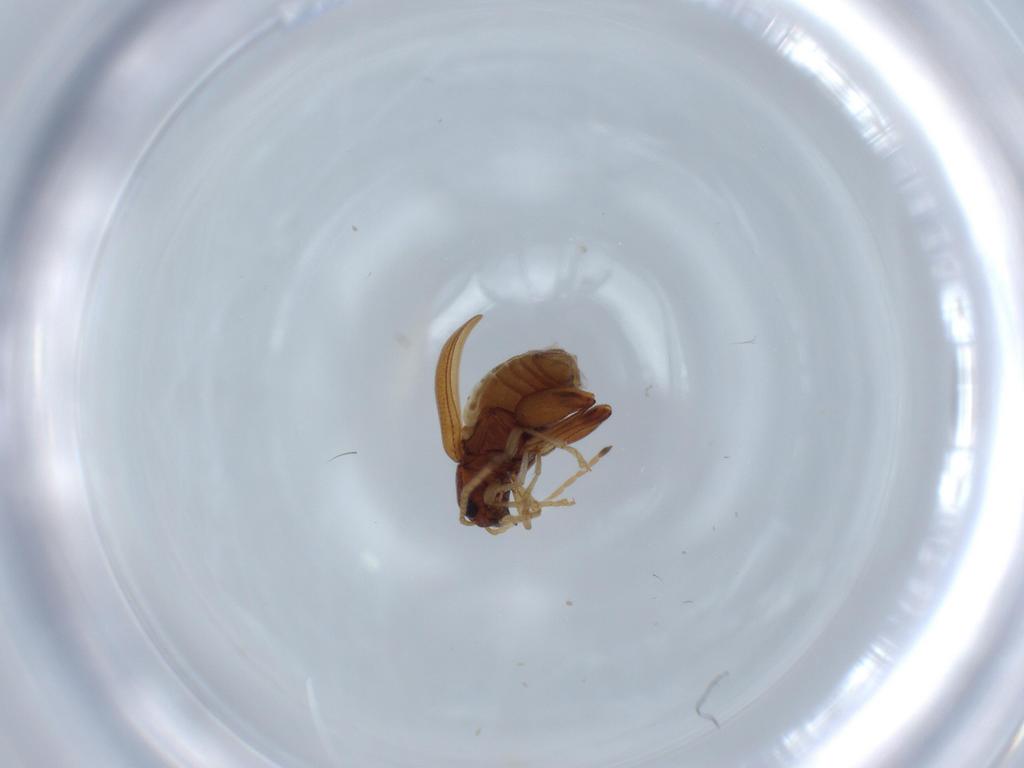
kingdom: Animalia
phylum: Arthropoda
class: Insecta
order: Coleoptera
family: Chrysomelidae
